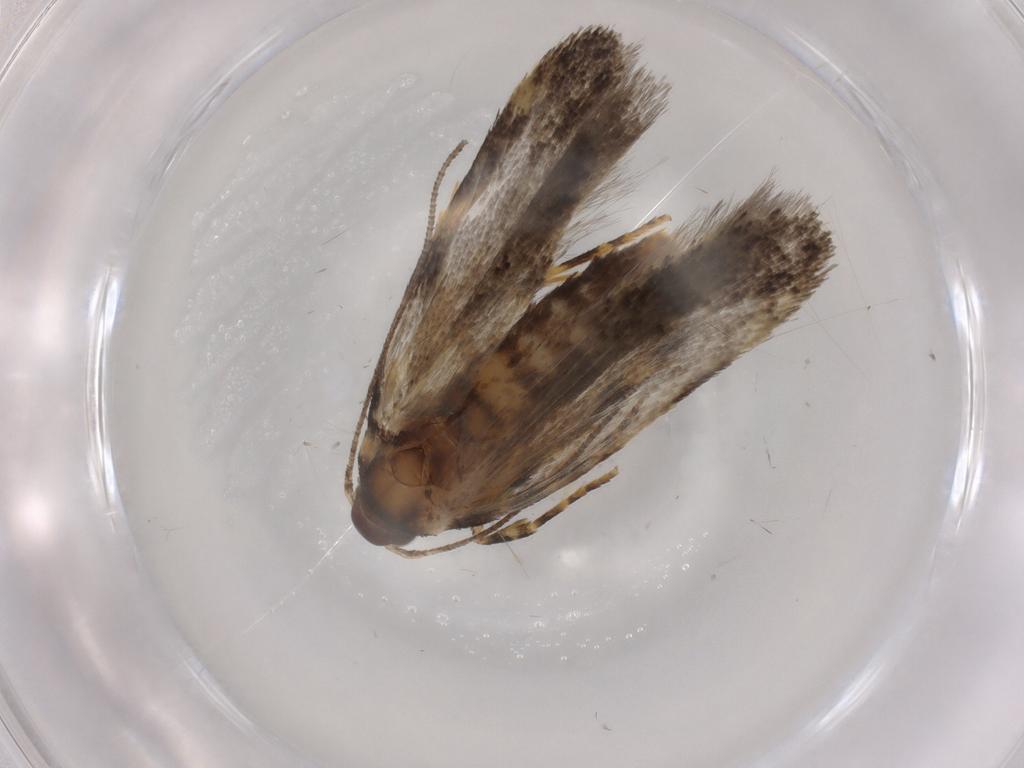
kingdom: Animalia
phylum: Arthropoda
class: Insecta
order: Lepidoptera
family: Autostichidae
